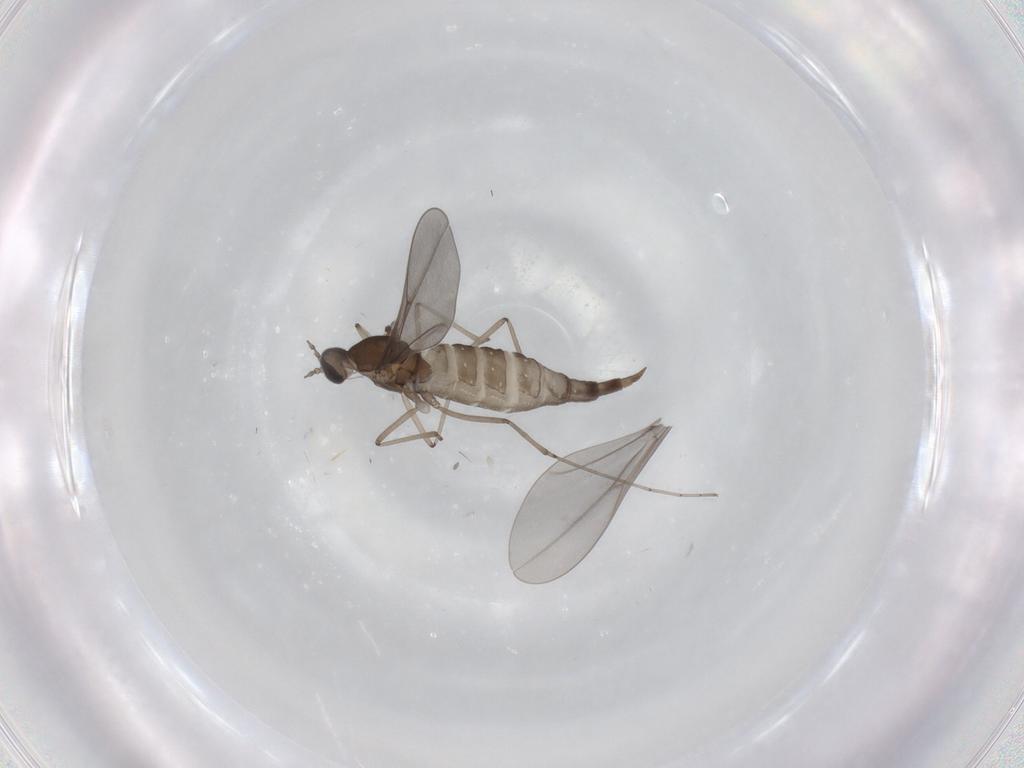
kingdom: Animalia
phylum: Arthropoda
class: Insecta
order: Diptera
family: Cecidomyiidae
